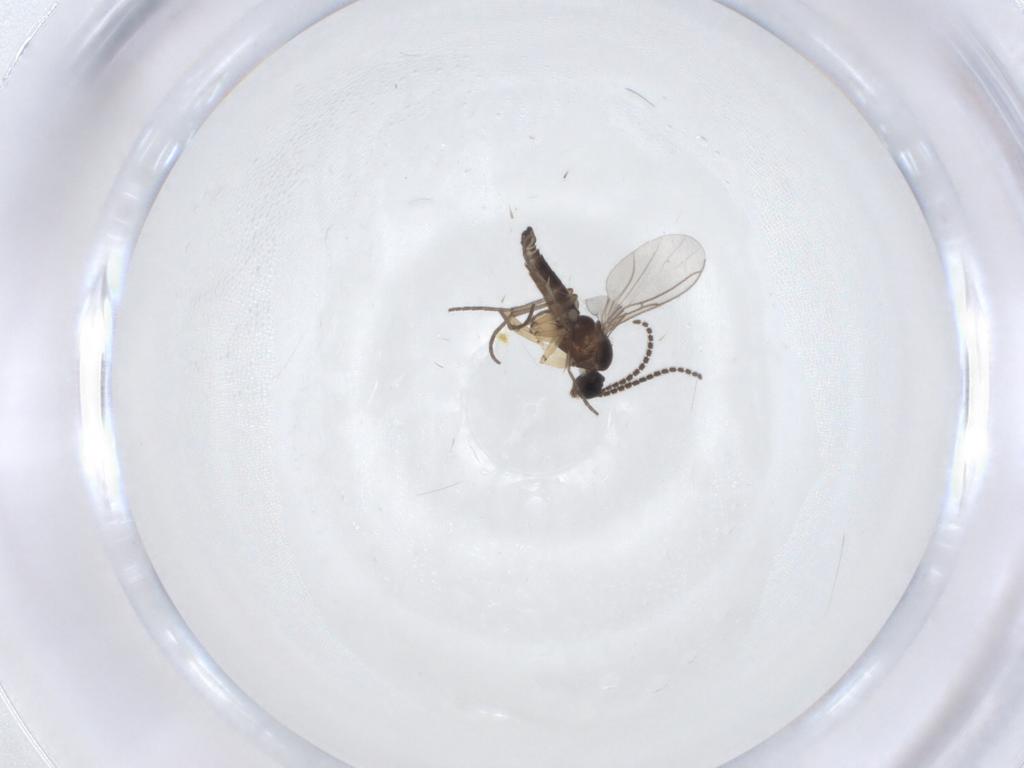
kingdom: Animalia
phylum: Arthropoda
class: Insecta
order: Diptera
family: Sciaridae
